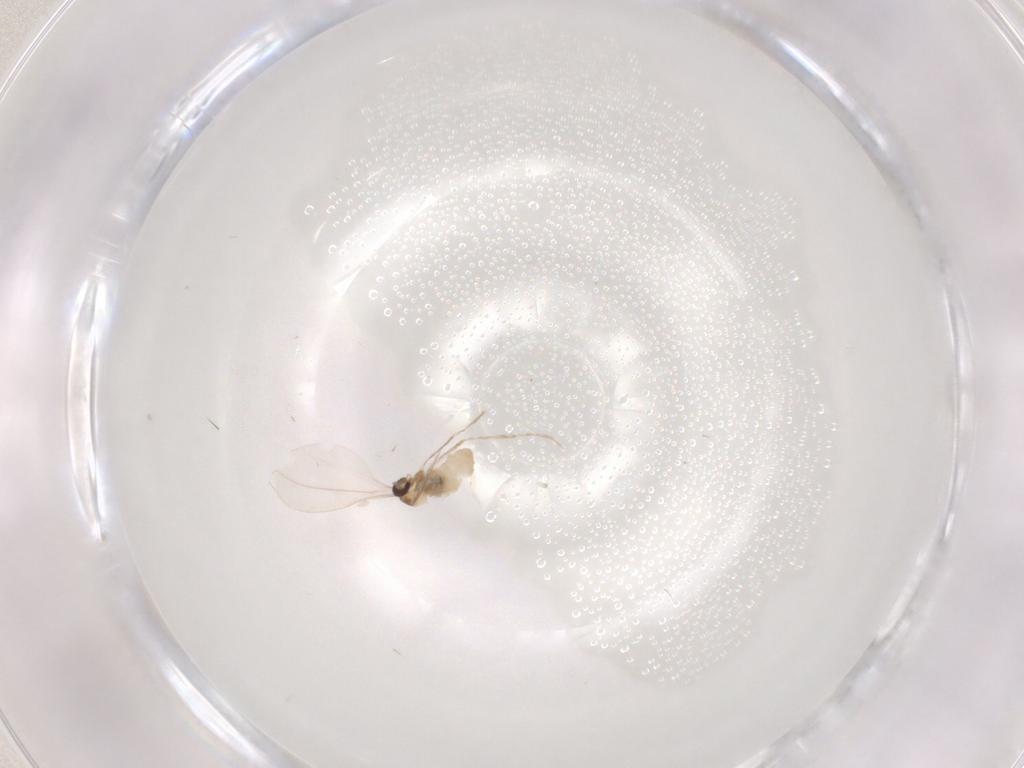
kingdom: Animalia
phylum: Arthropoda
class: Insecta
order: Diptera
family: Cecidomyiidae
